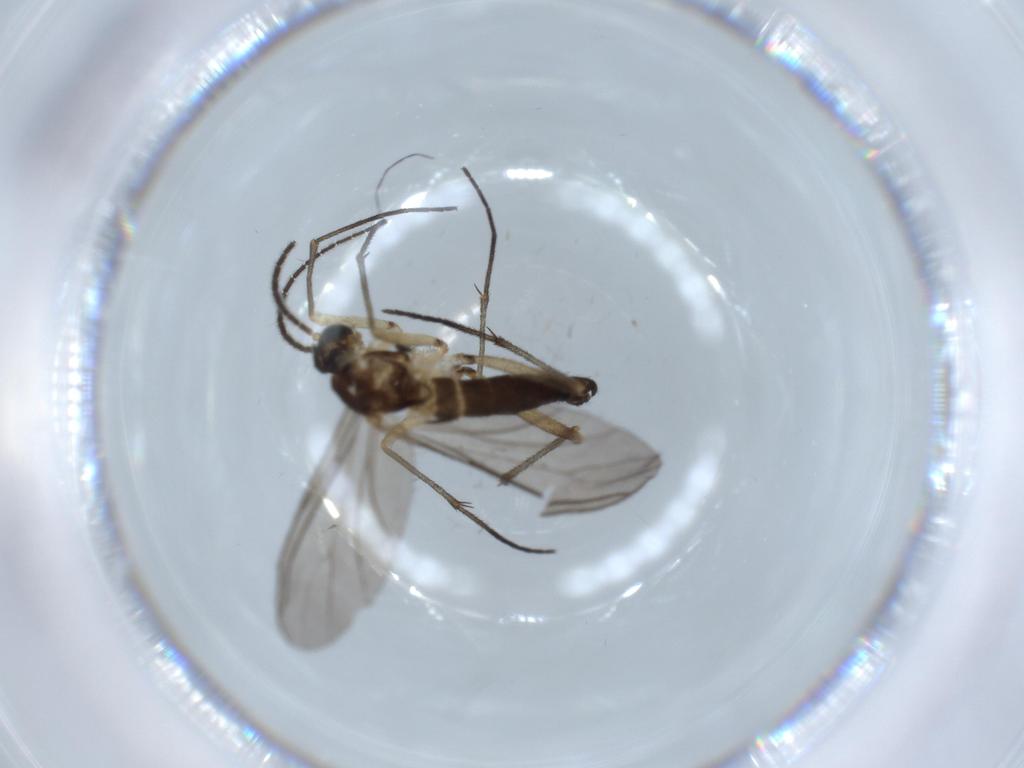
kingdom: Animalia
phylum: Arthropoda
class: Insecta
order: Diptera
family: Sciaridae
